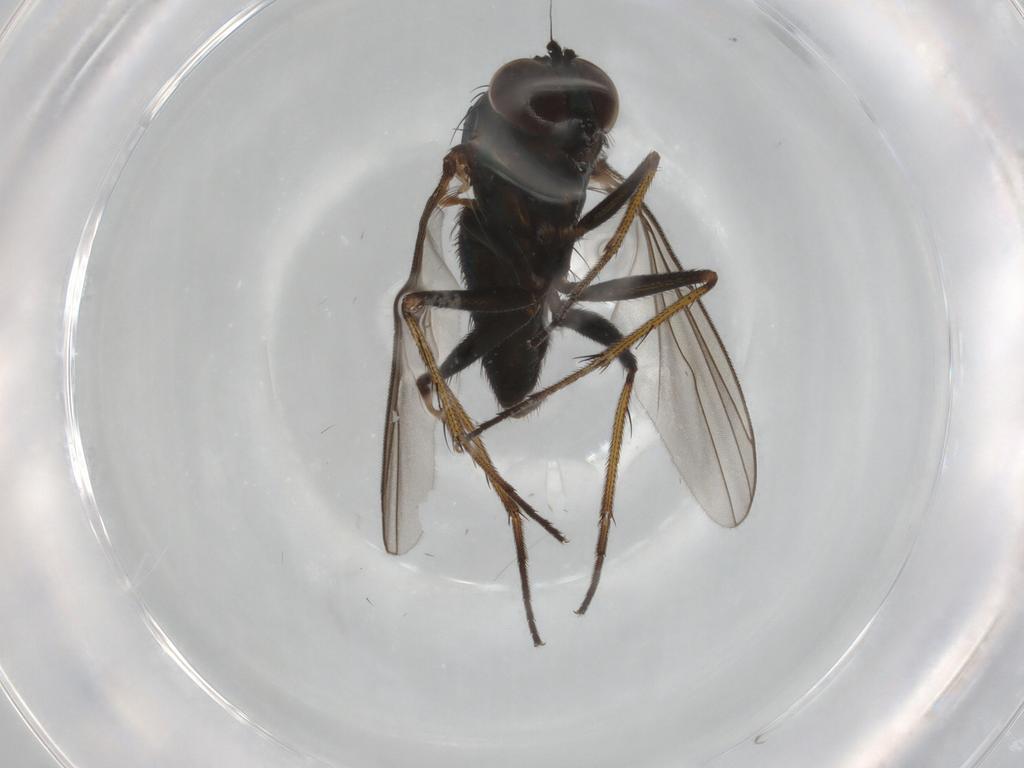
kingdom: Animalia
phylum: Arthropoda
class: Insecta
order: Diptera
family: Dolichopodidae
